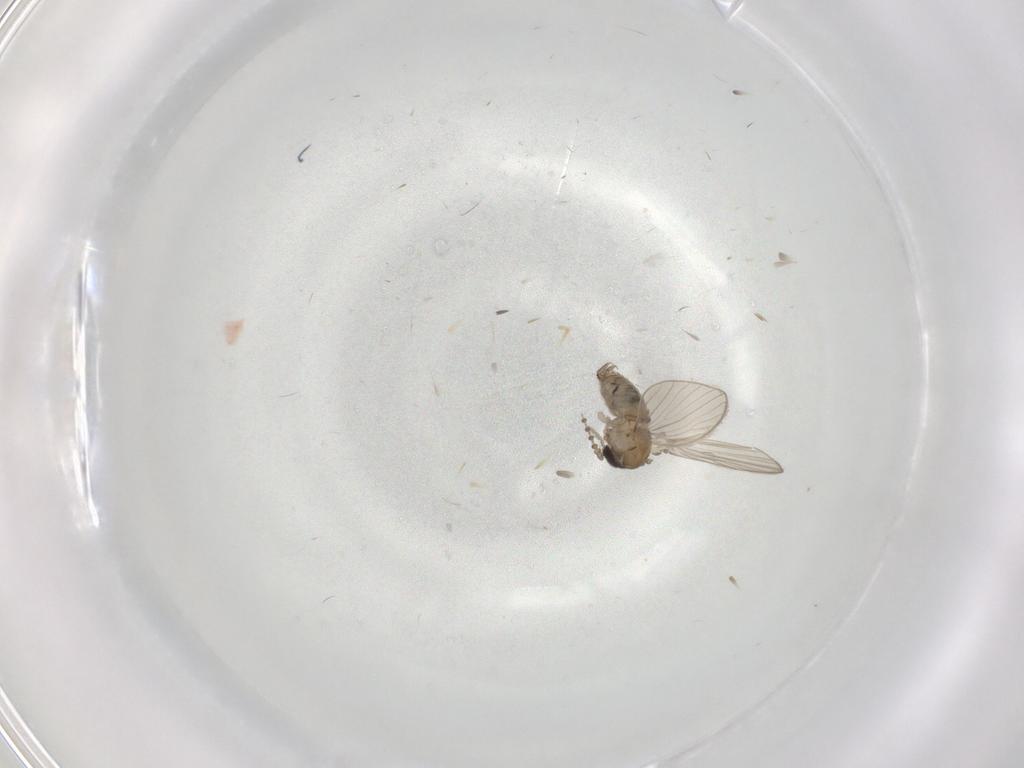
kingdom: Animalia
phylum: Arthropoda
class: Insecta
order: Diptera
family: Psychodidae
